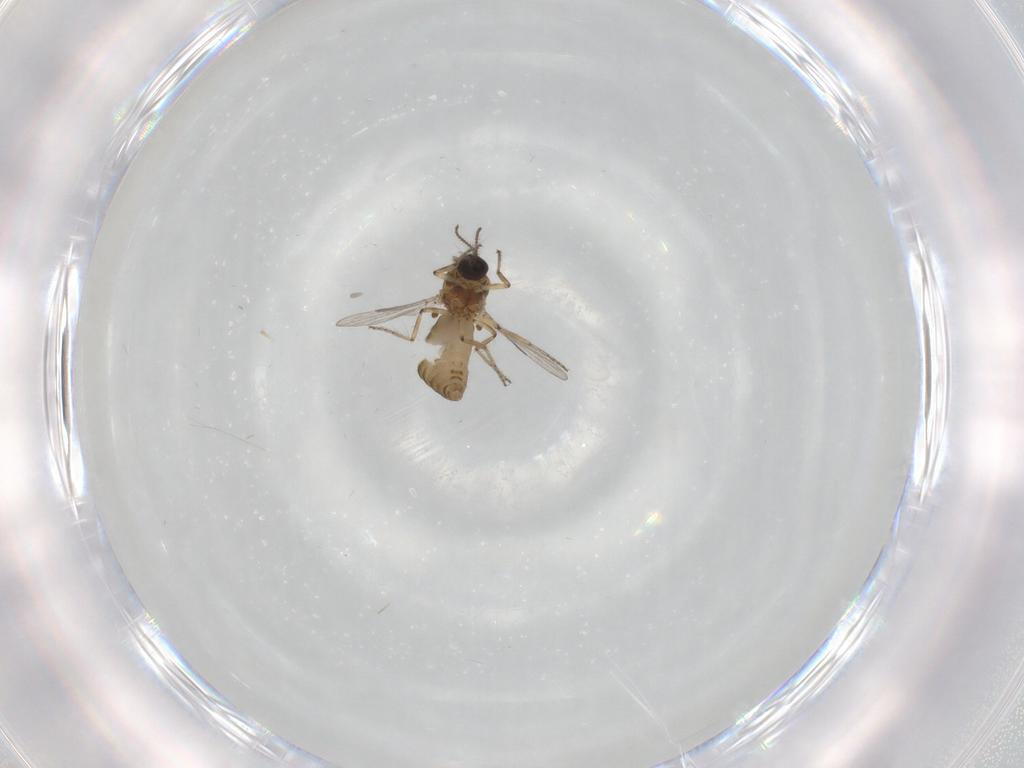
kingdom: Animalia
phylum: Arthropoda
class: Insecta
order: Diptera
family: Ceratopogonidae
